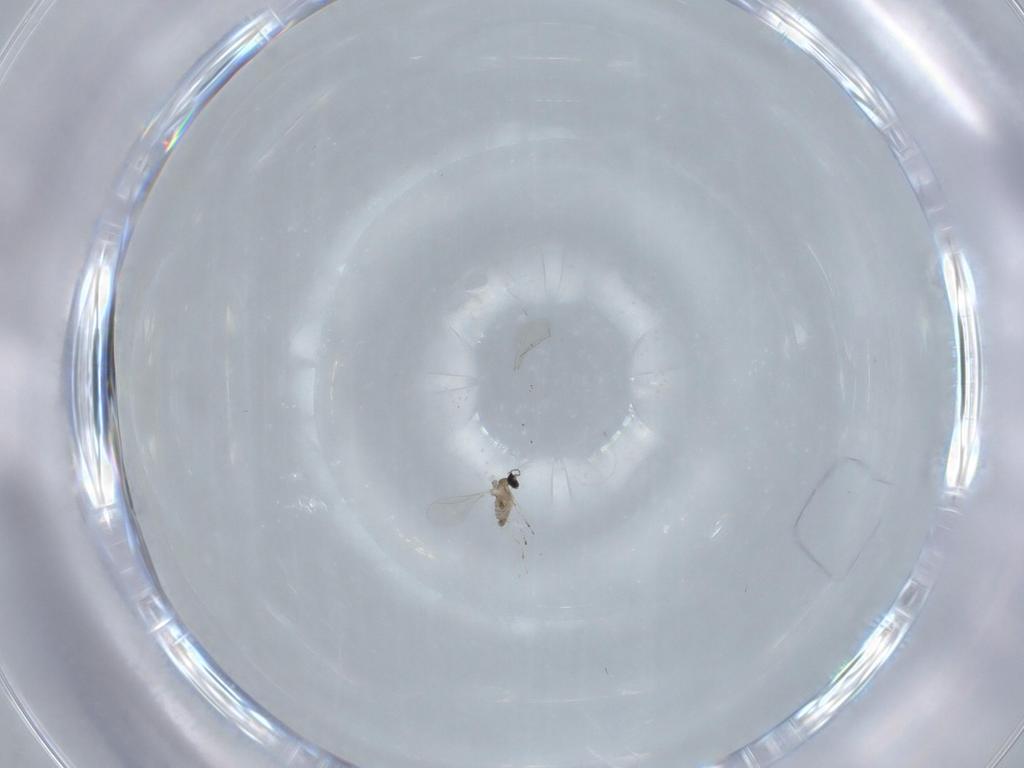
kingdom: Animalia
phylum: Arthropoda
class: Insecta
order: Diptera
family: Cecidomyiidae
